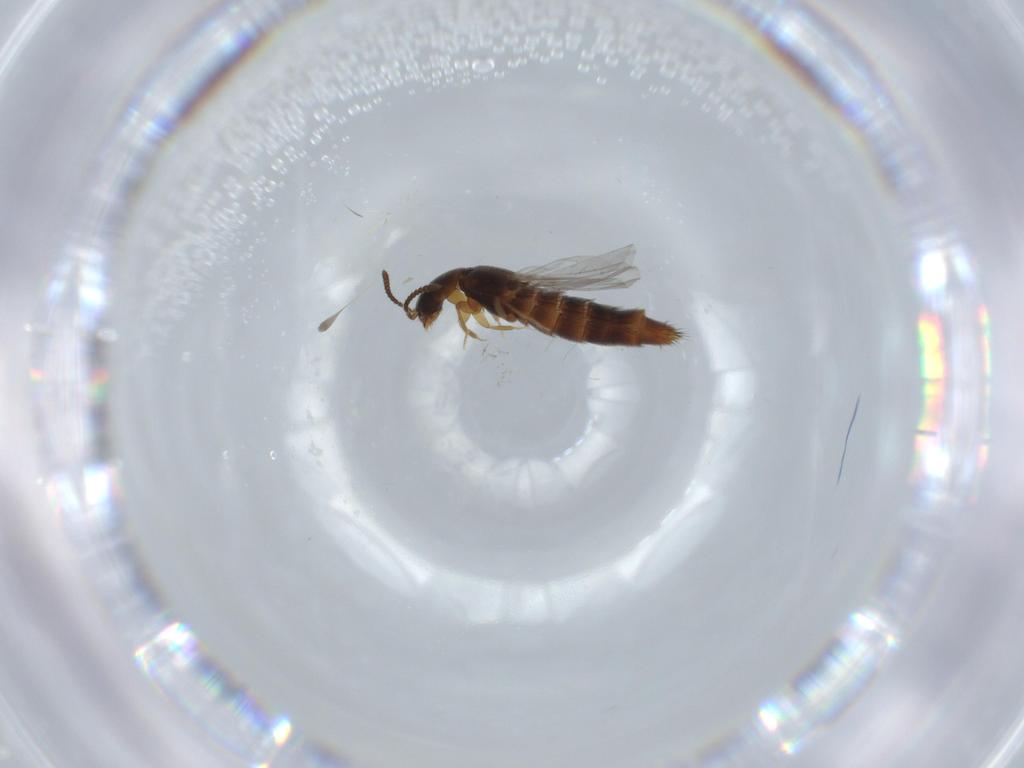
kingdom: Animalia
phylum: Arthropoda
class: Insecta
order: Coleoptera
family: Staphylinidae
